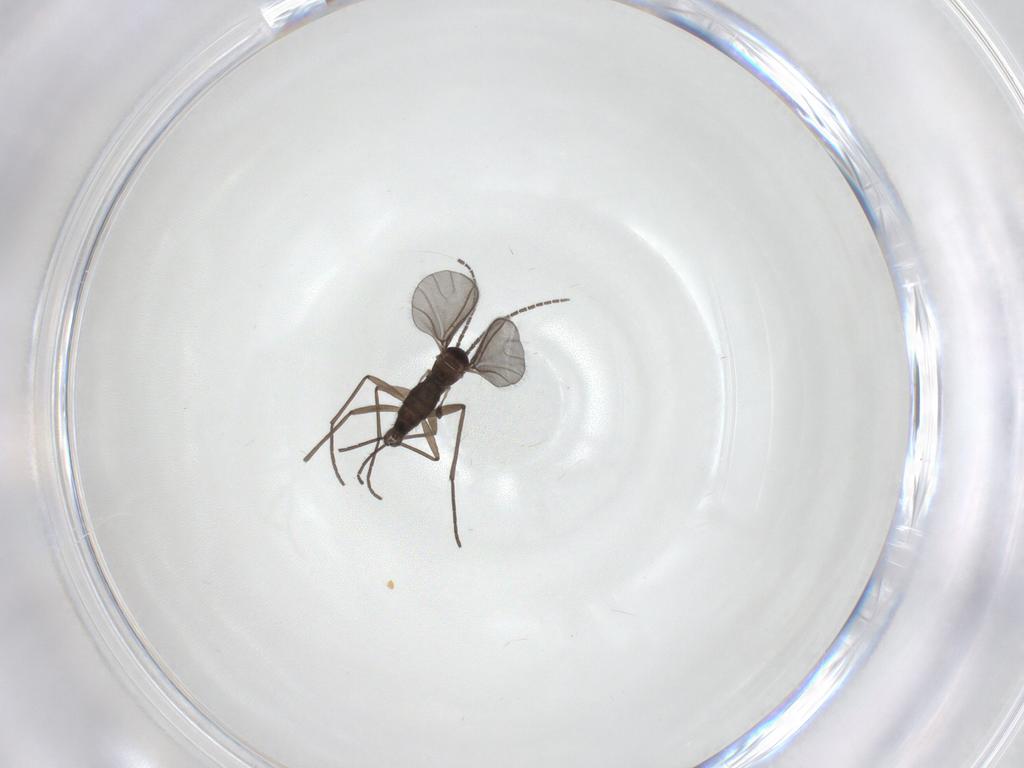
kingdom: Animalia
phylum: Arthropoda
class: Insecta
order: Diptera
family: Sciaridae
